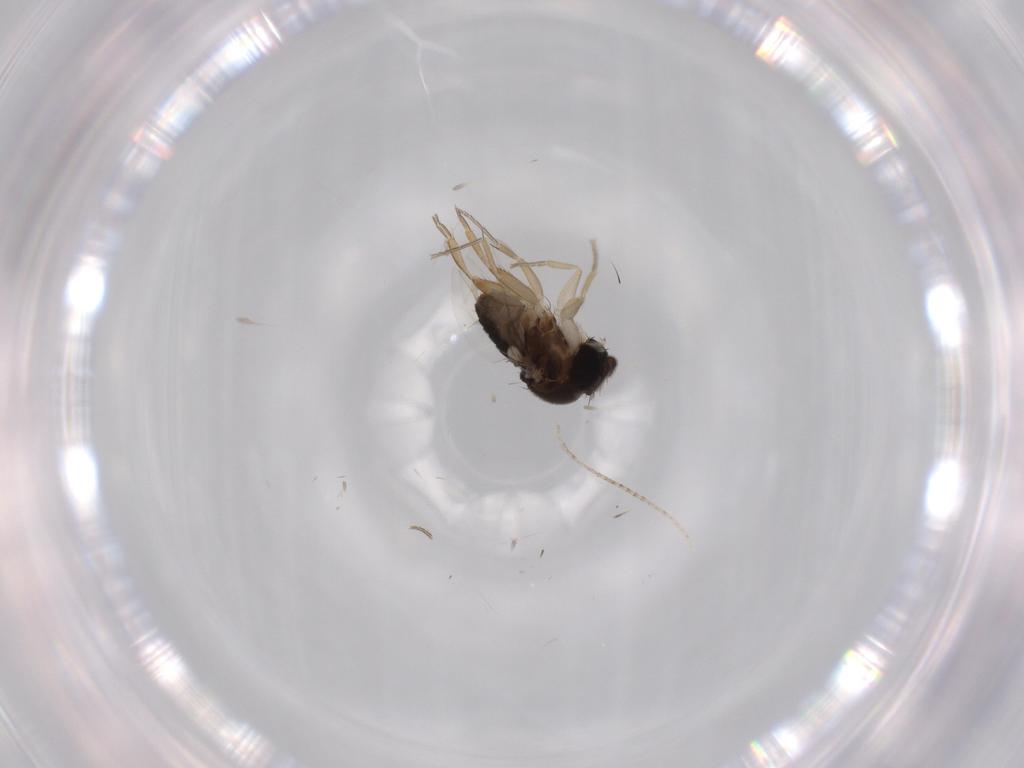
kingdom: Animalia
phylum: Arthropoda
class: Insecta
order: Diptera
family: Phoridae
